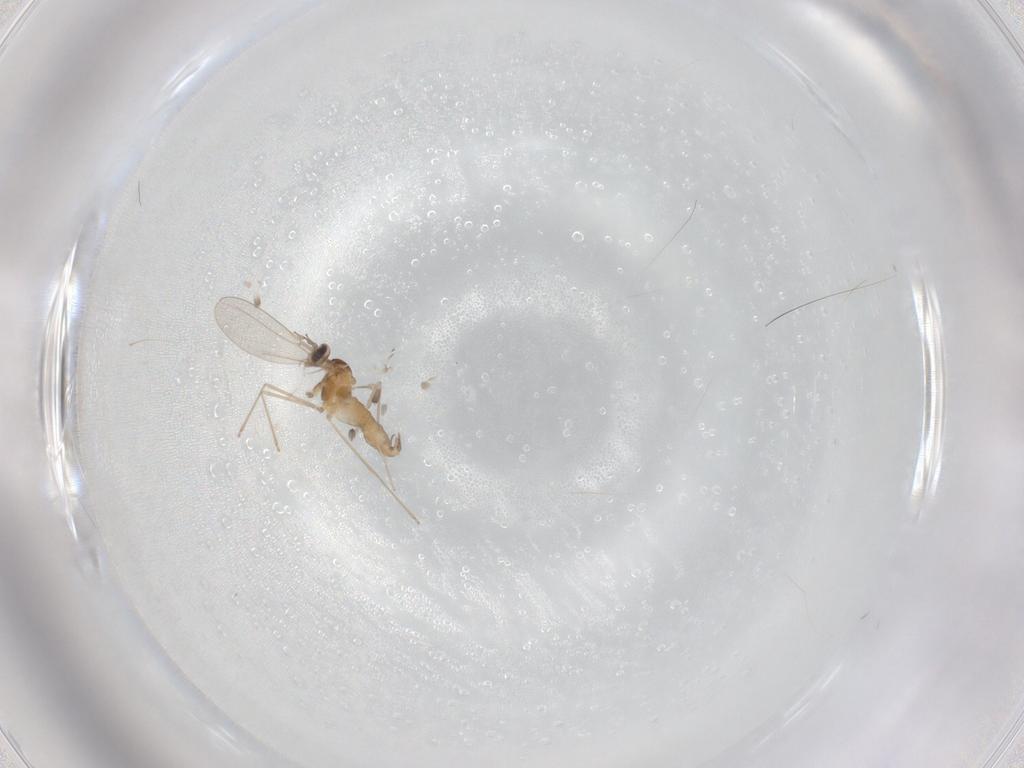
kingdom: Animalia
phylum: Arthropoda
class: Insecta
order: Diptera
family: Cecidomyiidae
